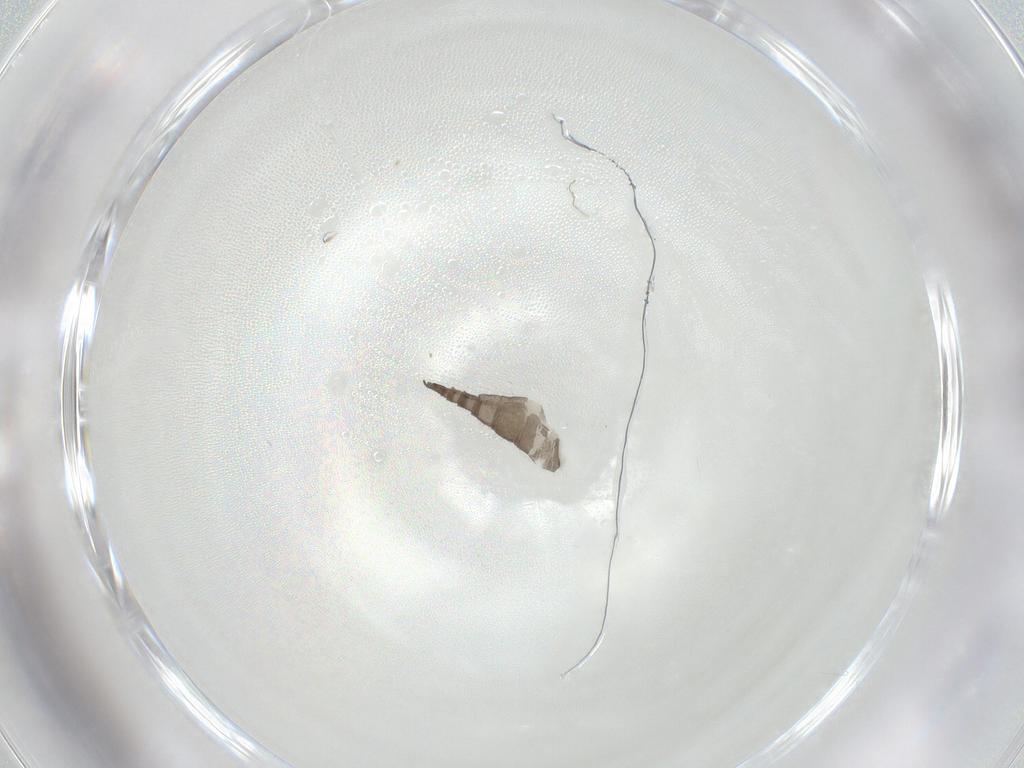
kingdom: Animalia
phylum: Arthropoda
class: Insecta
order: Diptera
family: Sciaridae
